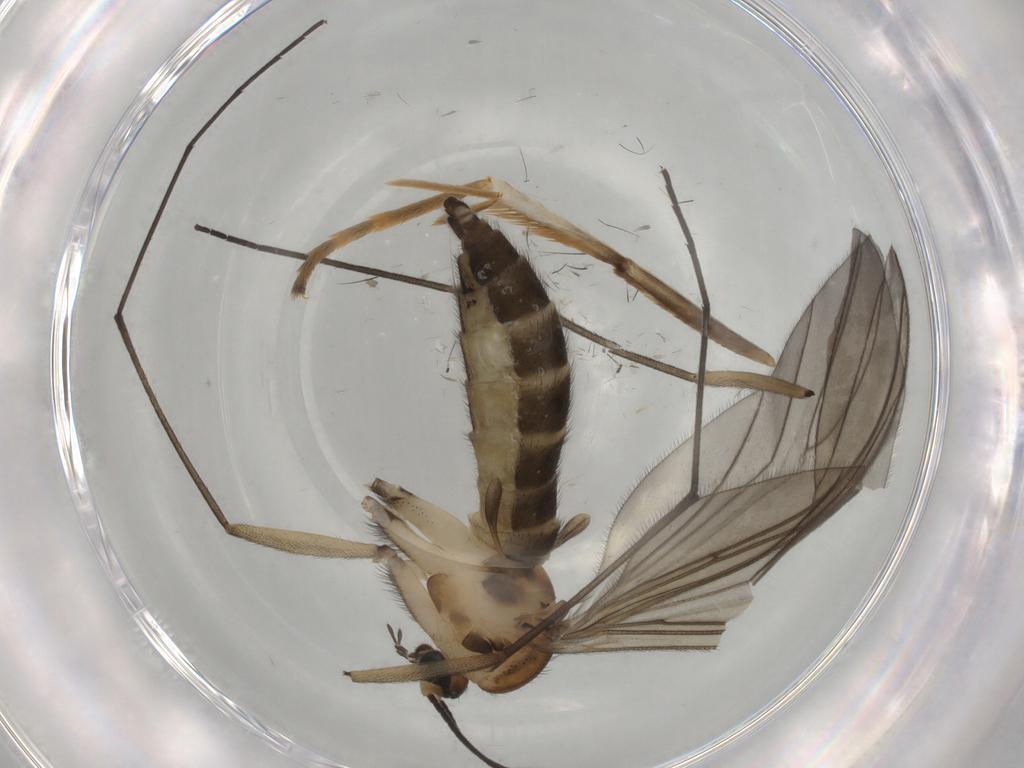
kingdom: Animalia
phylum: Arthropoda
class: Insecta
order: Diptera
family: Sciaridae
